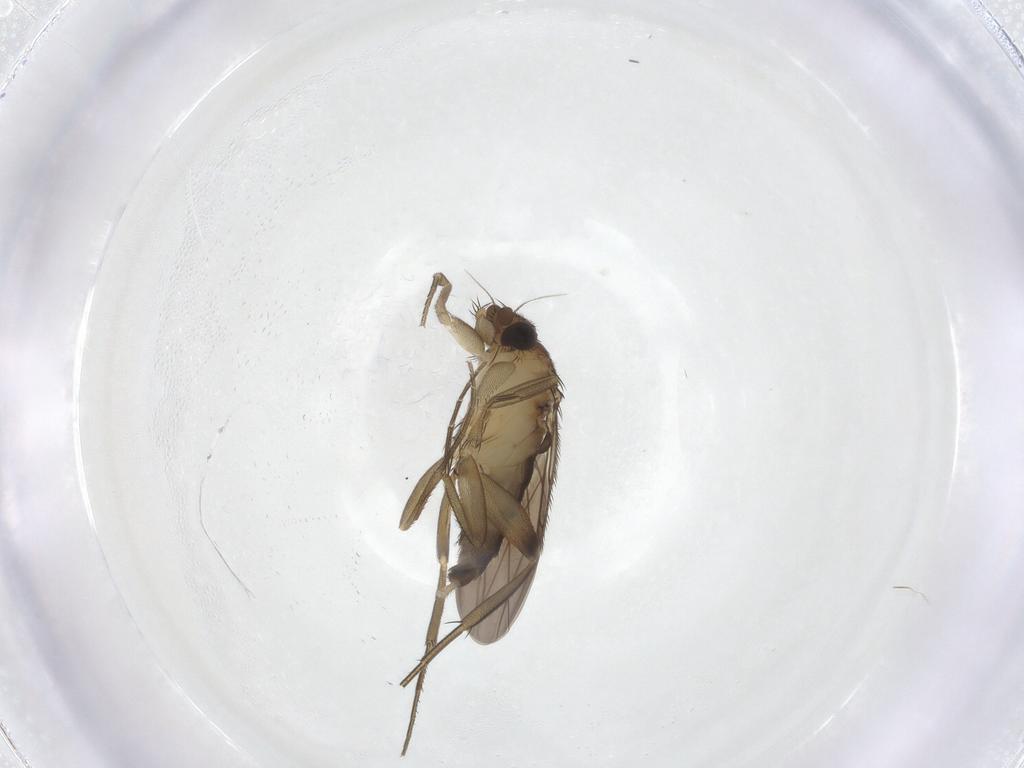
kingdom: Animalia
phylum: Arthropoda
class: Insecta
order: Diptera
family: Phoridae
